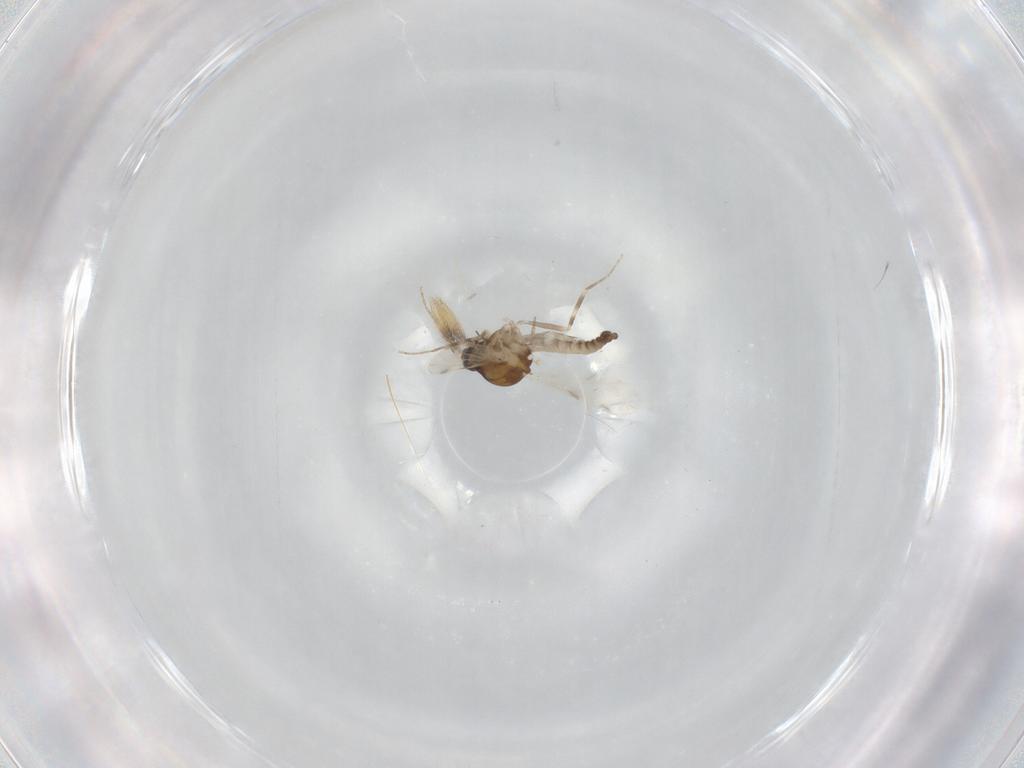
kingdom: Animalia
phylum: Arthropoda
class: Insecta
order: Diptera
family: Ceratopogonidae
